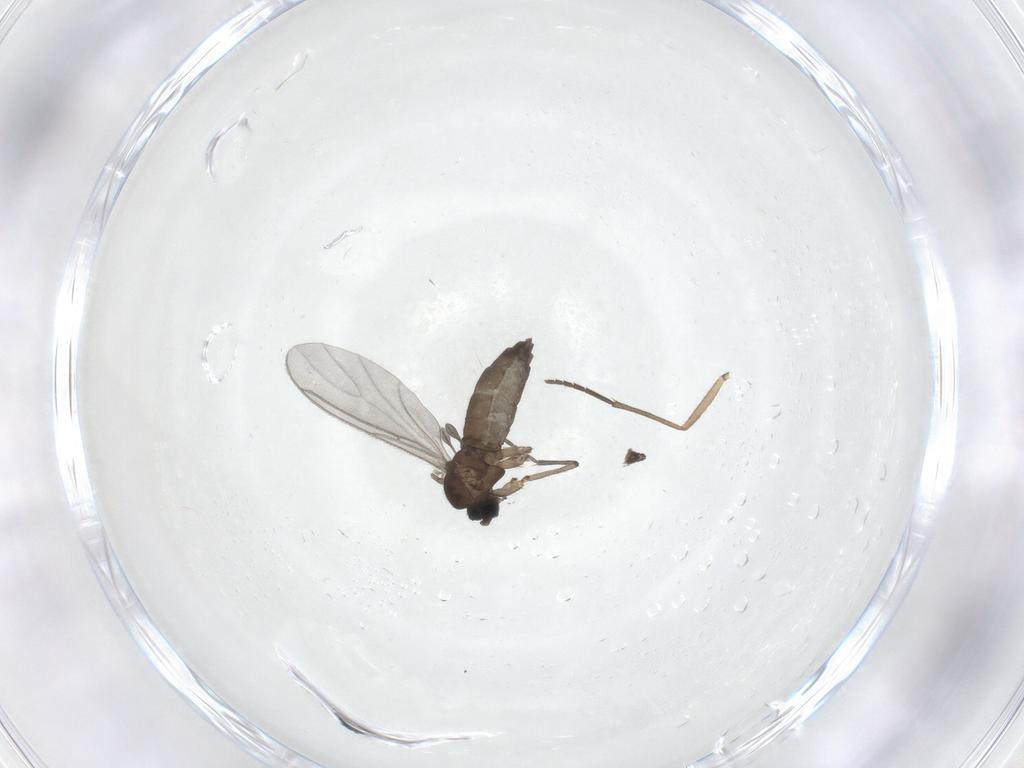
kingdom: Animalia
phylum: Arthropoda
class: Insecta
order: Diptera
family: Sciaridae
